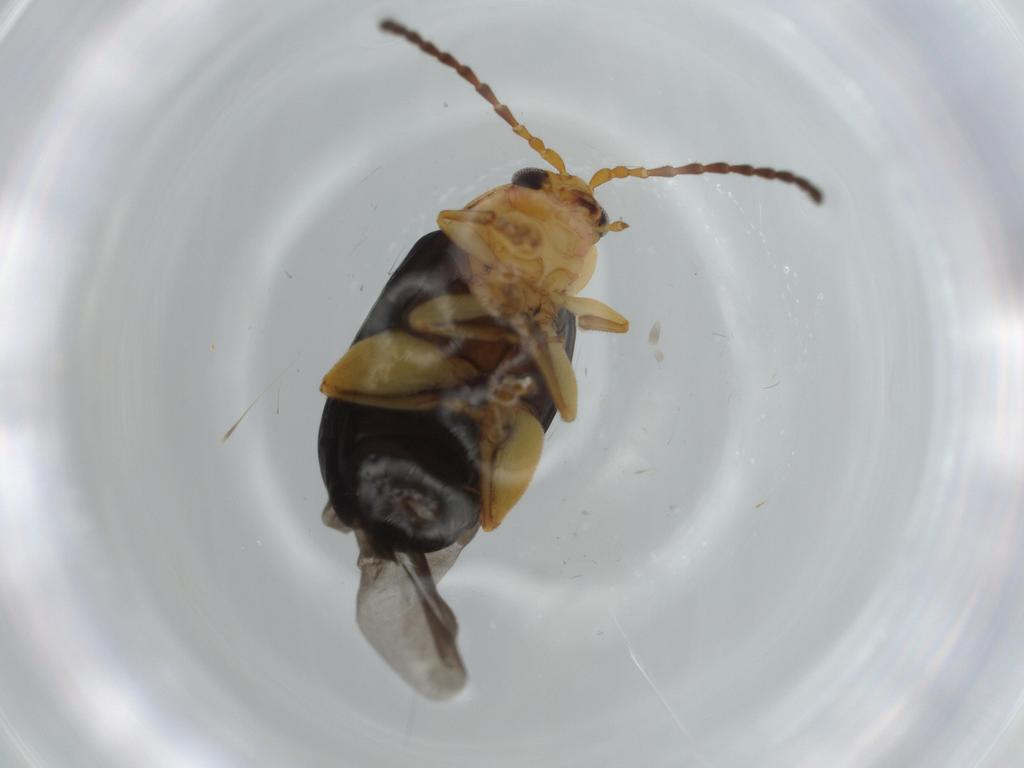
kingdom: Animalia
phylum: Arthropoda
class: Insecta
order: Coleoptera
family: Chrysomelidae
